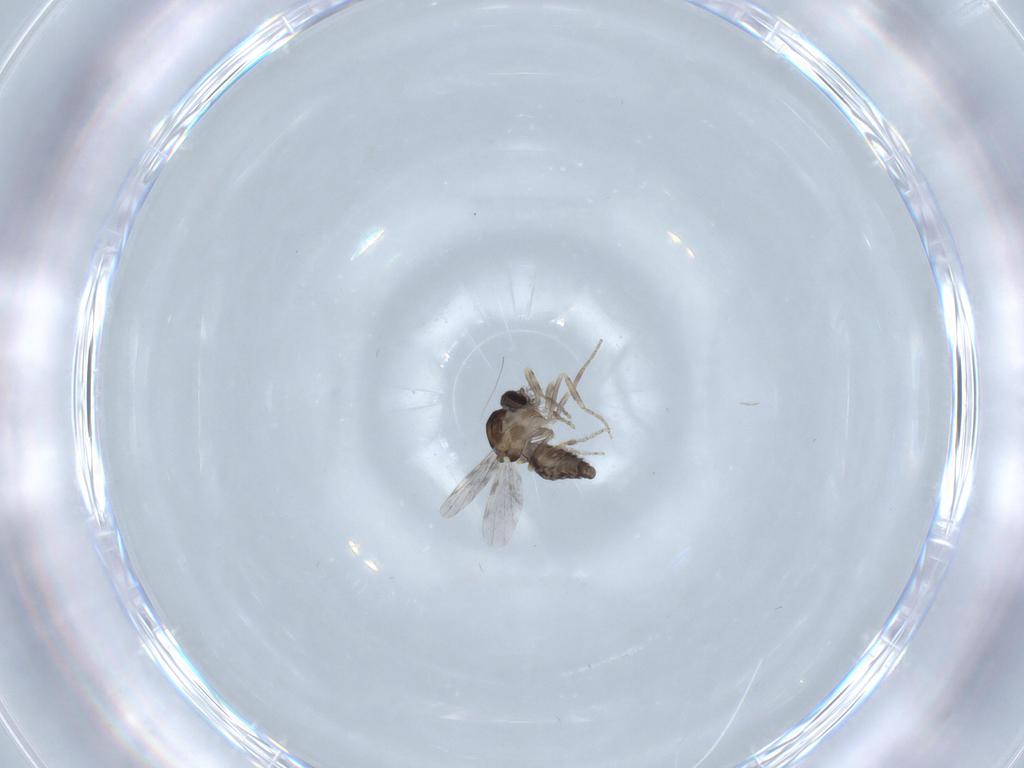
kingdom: Animalia
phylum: Arthropoda
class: Insecta
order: Diptera
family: Ceratopogonidae
